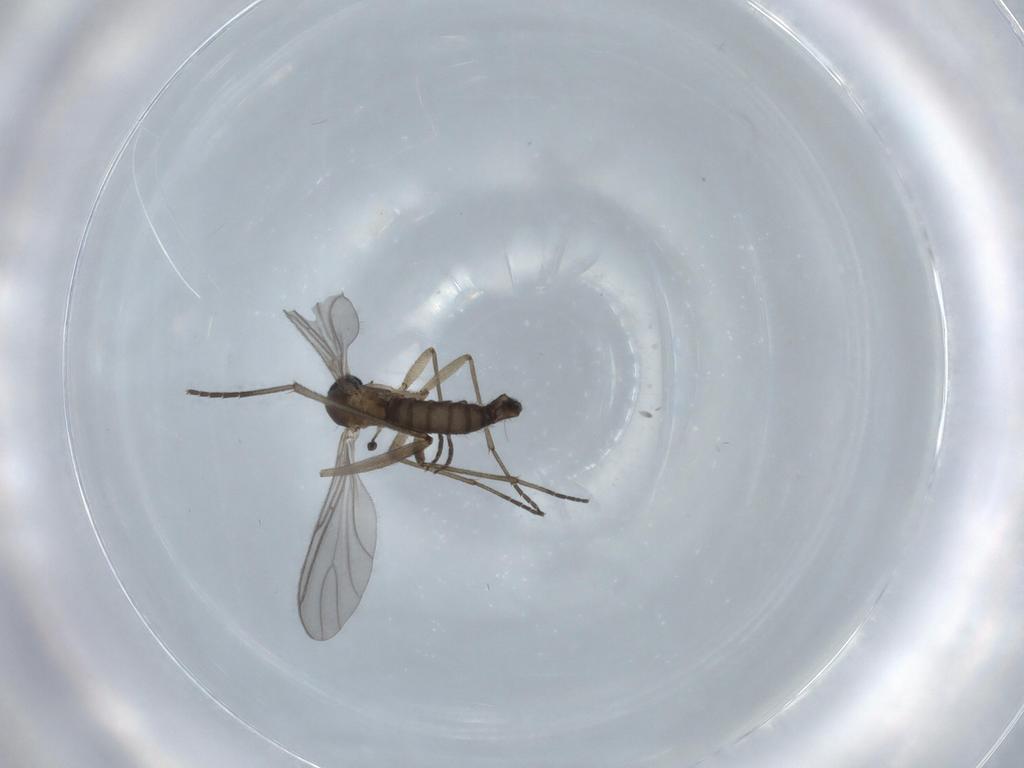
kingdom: Animalia
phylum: Arthropoda
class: Insecta
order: Diptera
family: Sciaridae
